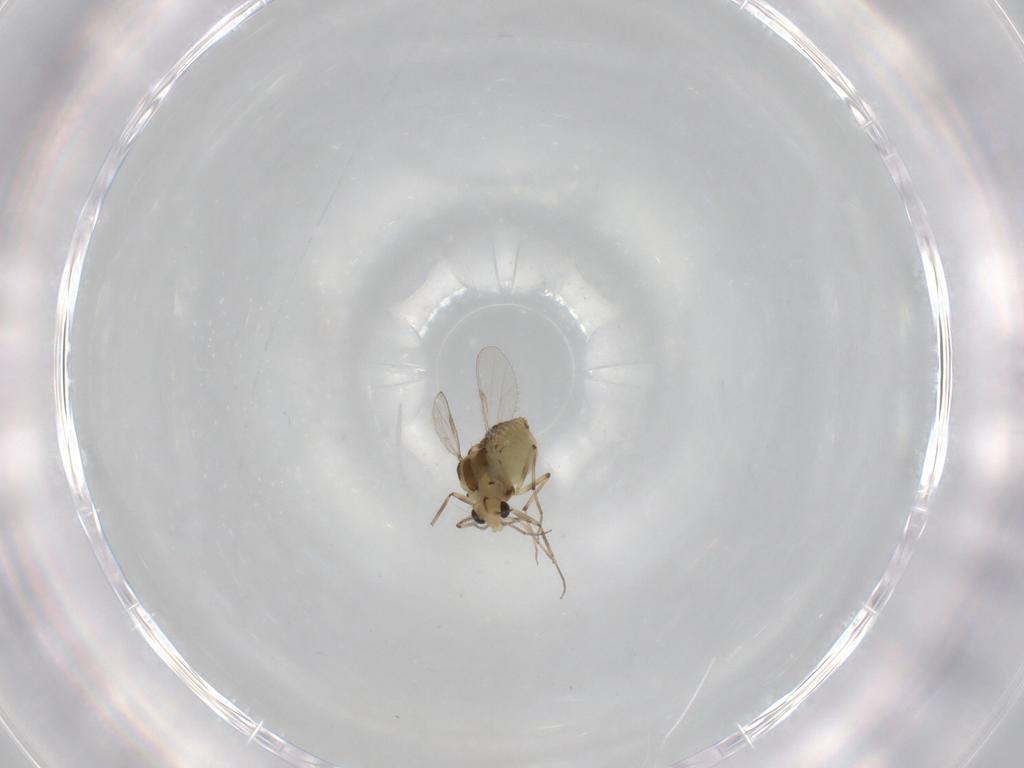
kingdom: Animalia
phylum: Arthropoda
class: Insecta
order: Diptera
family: Chironomidae
